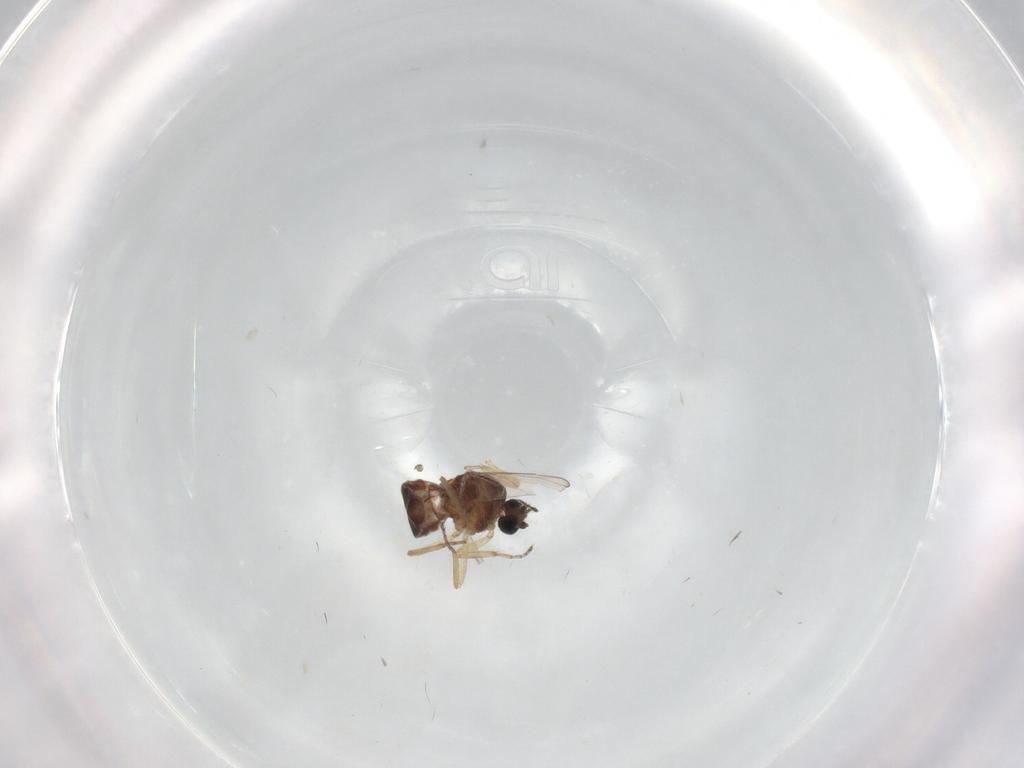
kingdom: Animalia
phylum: Arthropoda
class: Insecta
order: Diptera
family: Ceratopogonidae
